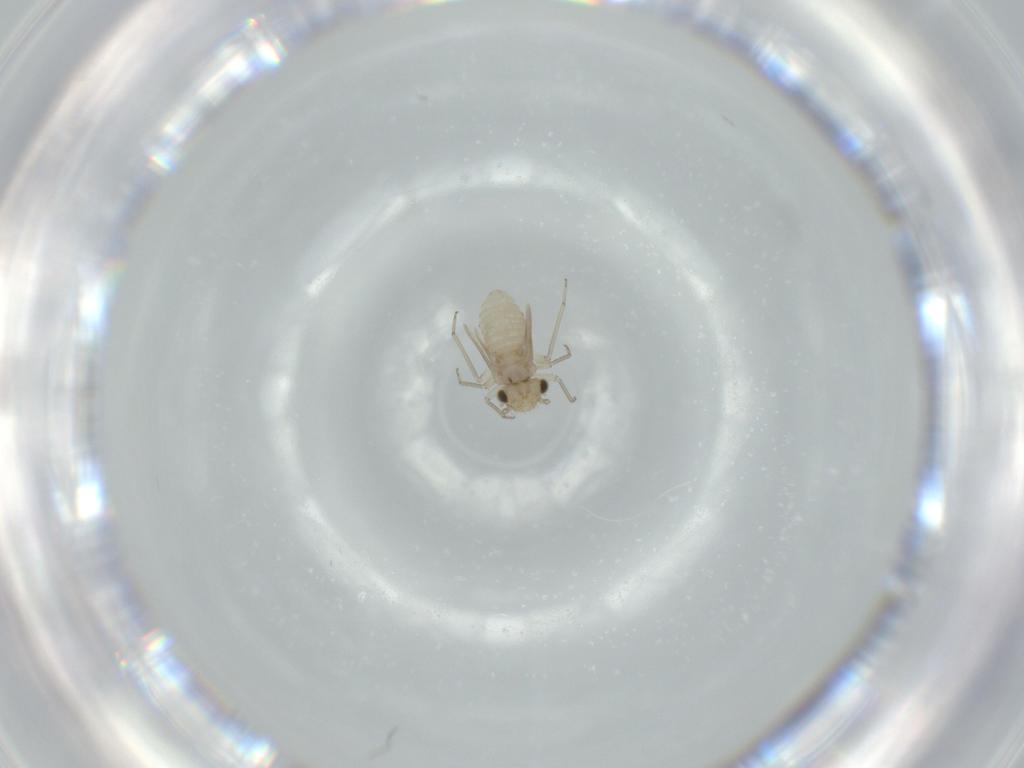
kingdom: Animalia
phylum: Arthropoda
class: Insecta
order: Psocodea
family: Lachesillidae
